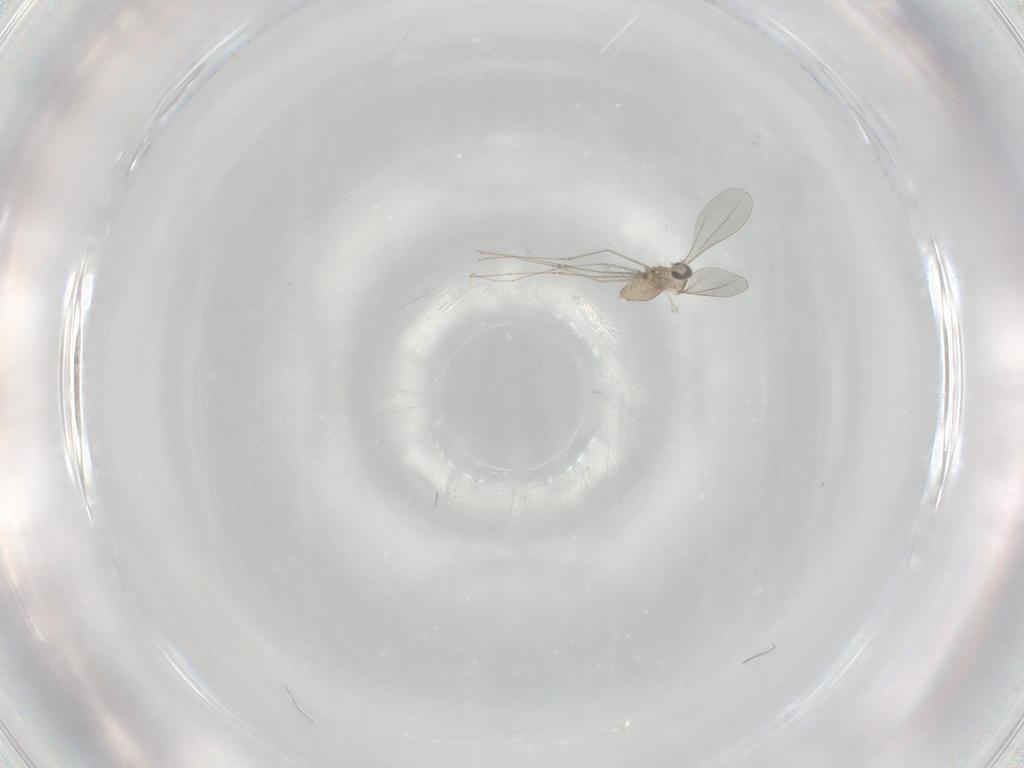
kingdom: Animalia
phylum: Arthropoda
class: Insecta
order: Diptera
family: Cecidomyiidae
